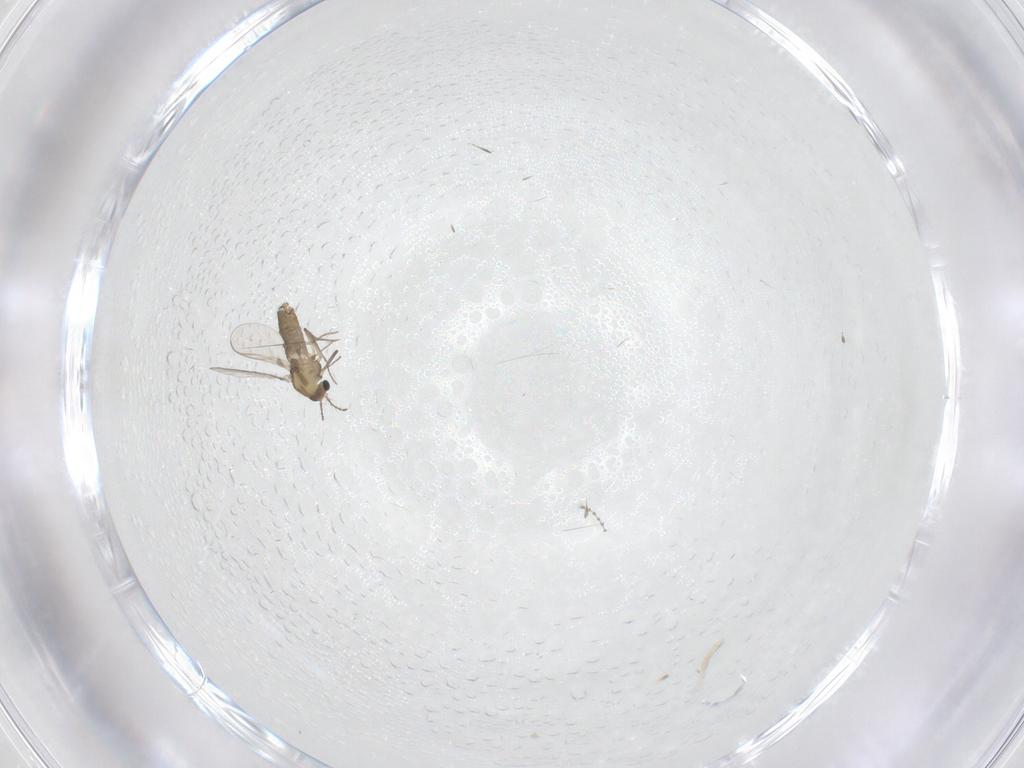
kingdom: Animalia
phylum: Arthropoda
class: Insecta
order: Diptera
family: Chironomidae
